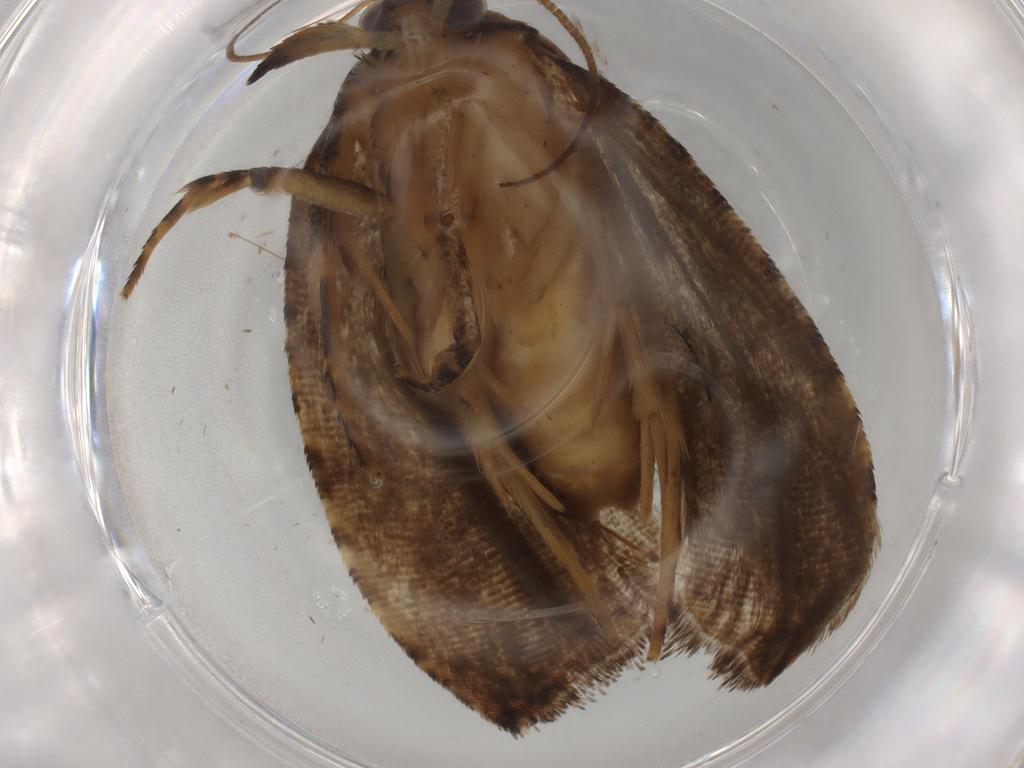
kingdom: Animalia
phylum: Arthropoda
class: Insecta
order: Lepidoptera
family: Tortricidae
